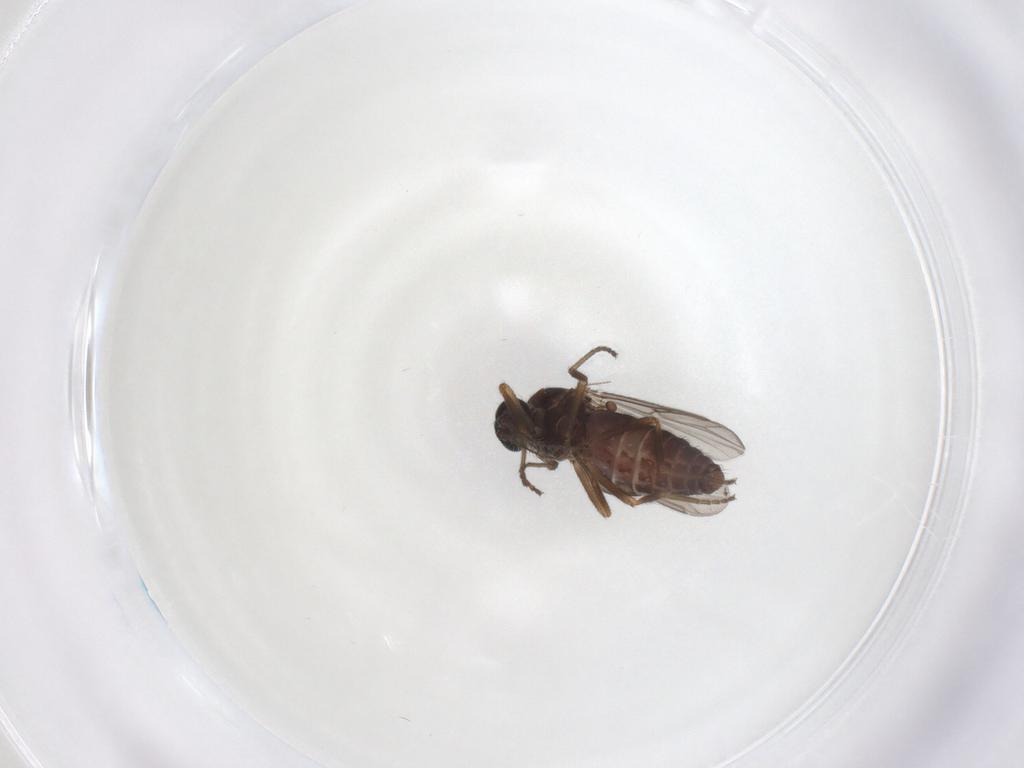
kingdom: Animalia
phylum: Arthropoda
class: Insecta
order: Diptera
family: Ceratopogonidae
